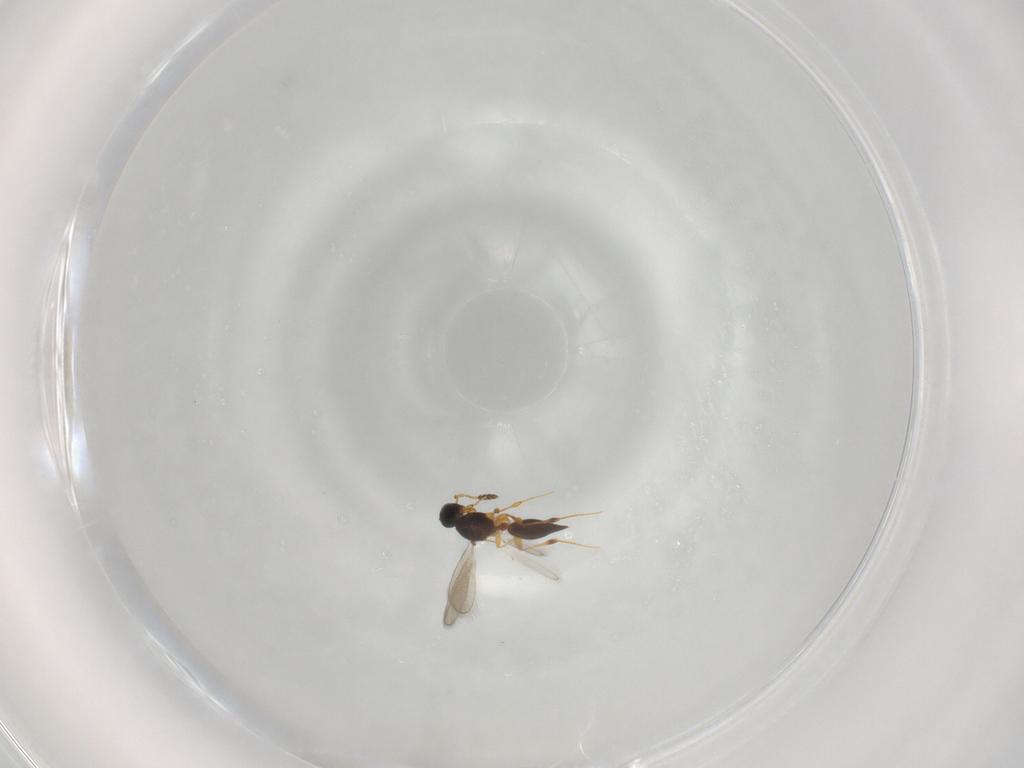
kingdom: Animalia
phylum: Arthropoda
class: Insecta
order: Hymenoptera
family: Platygastridae
